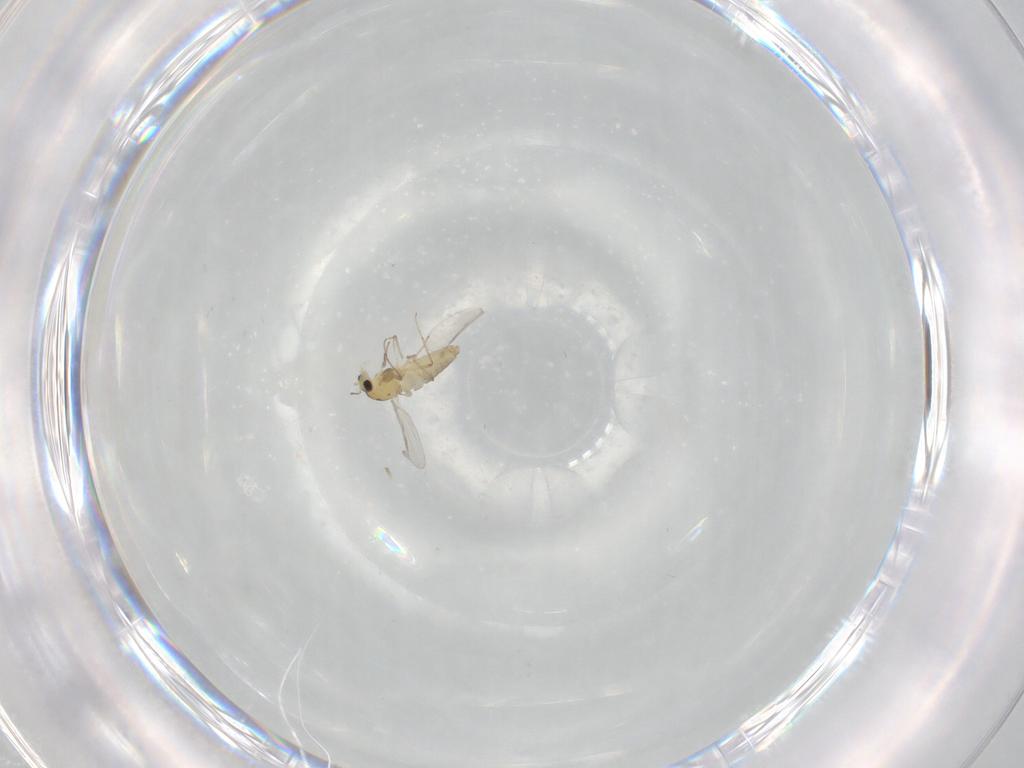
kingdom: Animalia
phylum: Arthropoda
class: Insecta
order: Diptera
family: Chironomidae
